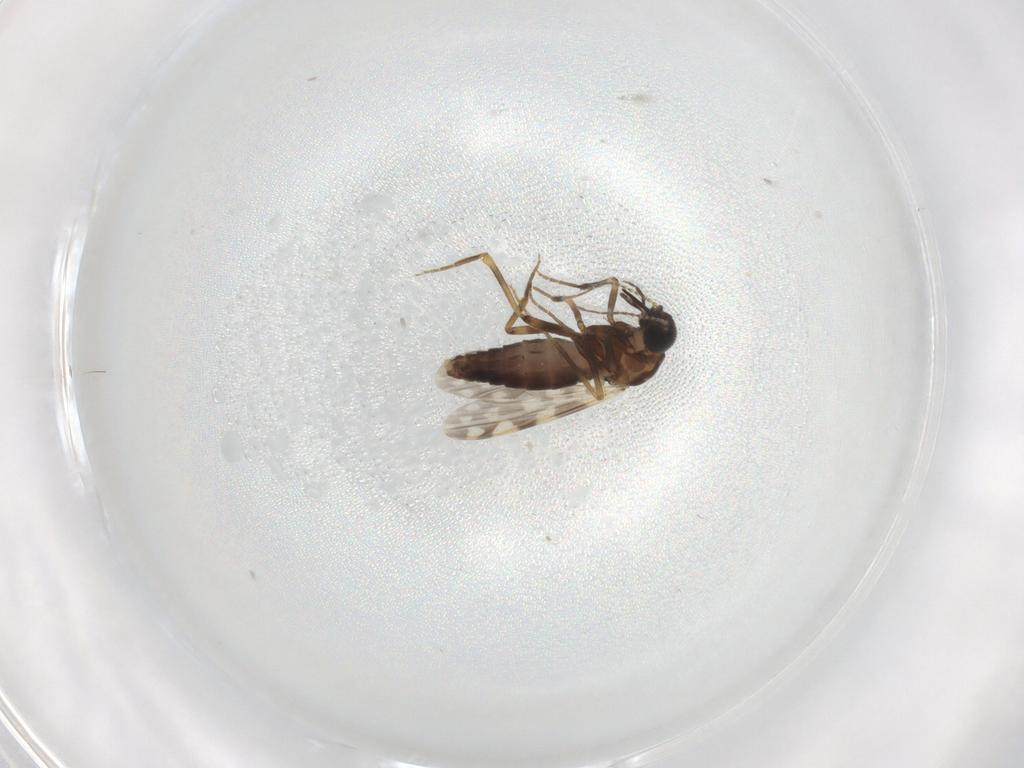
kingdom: Animalia
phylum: Arthropoda
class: Insecta
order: Diptera
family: Ceratopogonidae
